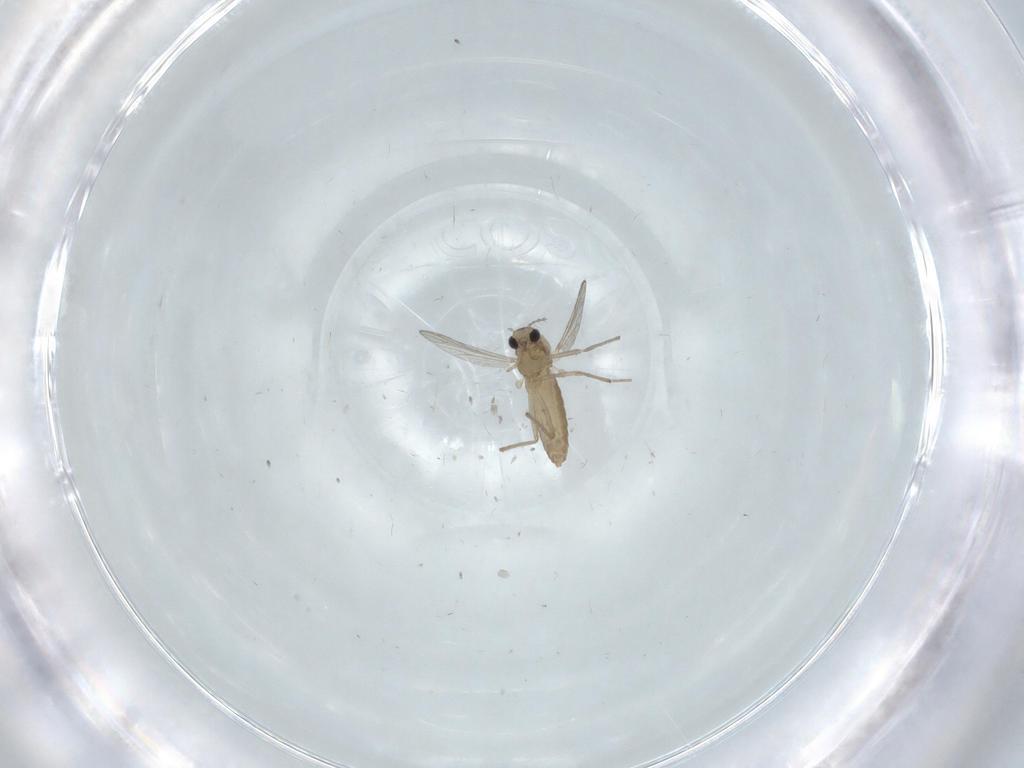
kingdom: Animalia
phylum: Arthropoda
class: Insecta
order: Diptera
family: Chironomidae
